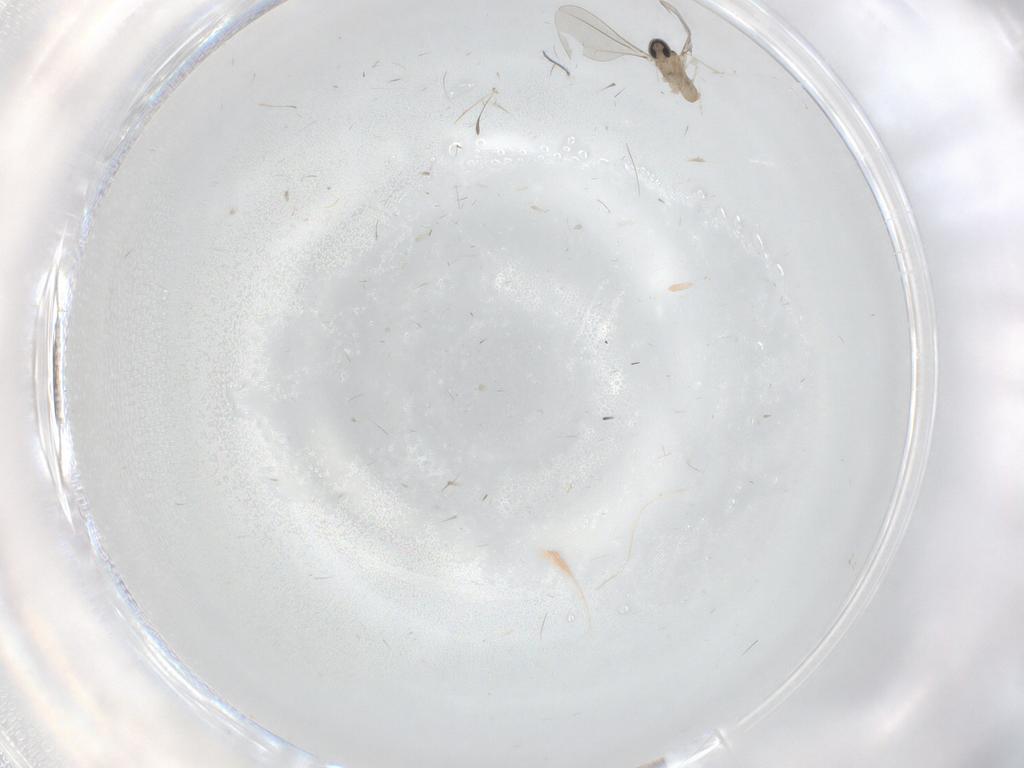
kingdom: Animalia
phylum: Arthropoda
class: Insecta
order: Diptera
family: Cecidomyiidae
